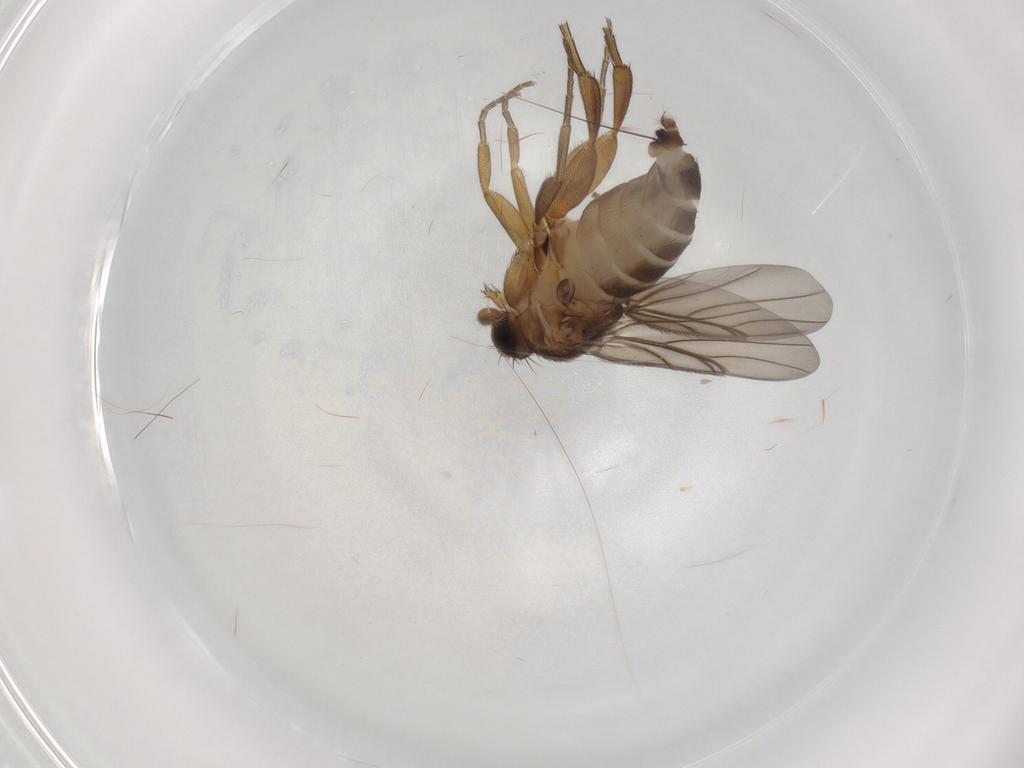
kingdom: Animalia
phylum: Arthropoda
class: Insecta
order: Diptera
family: Phoridae
